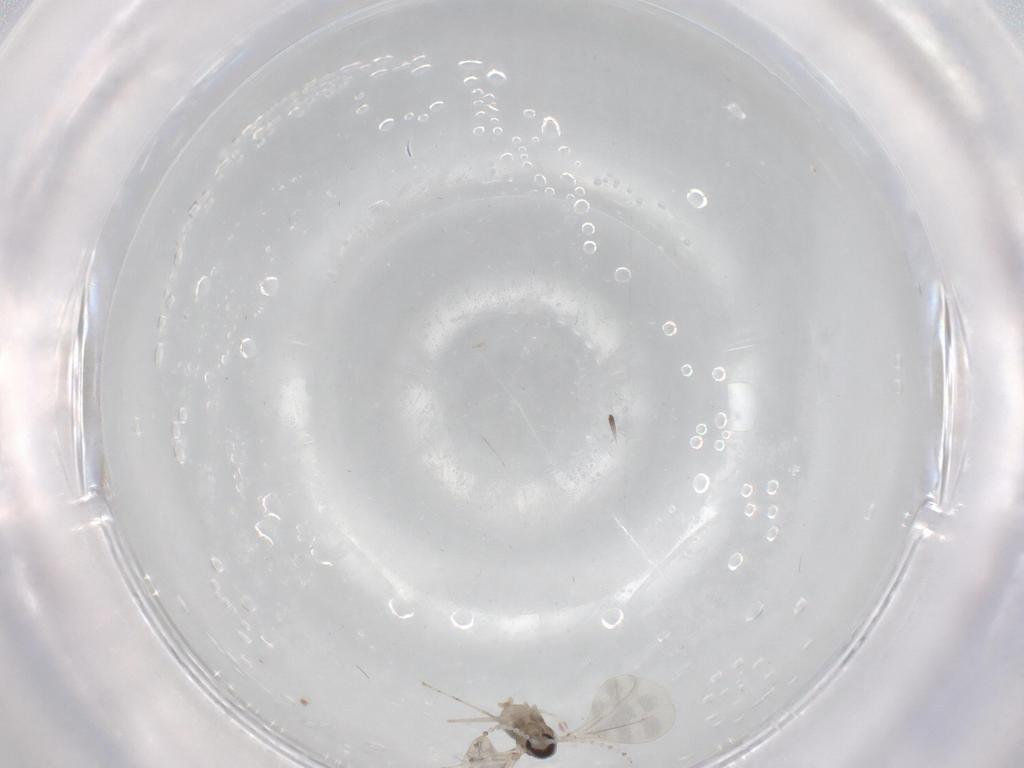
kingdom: Animalia
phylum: Arthropoda
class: Insecta
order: Diptera
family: Cecidomyiidae
